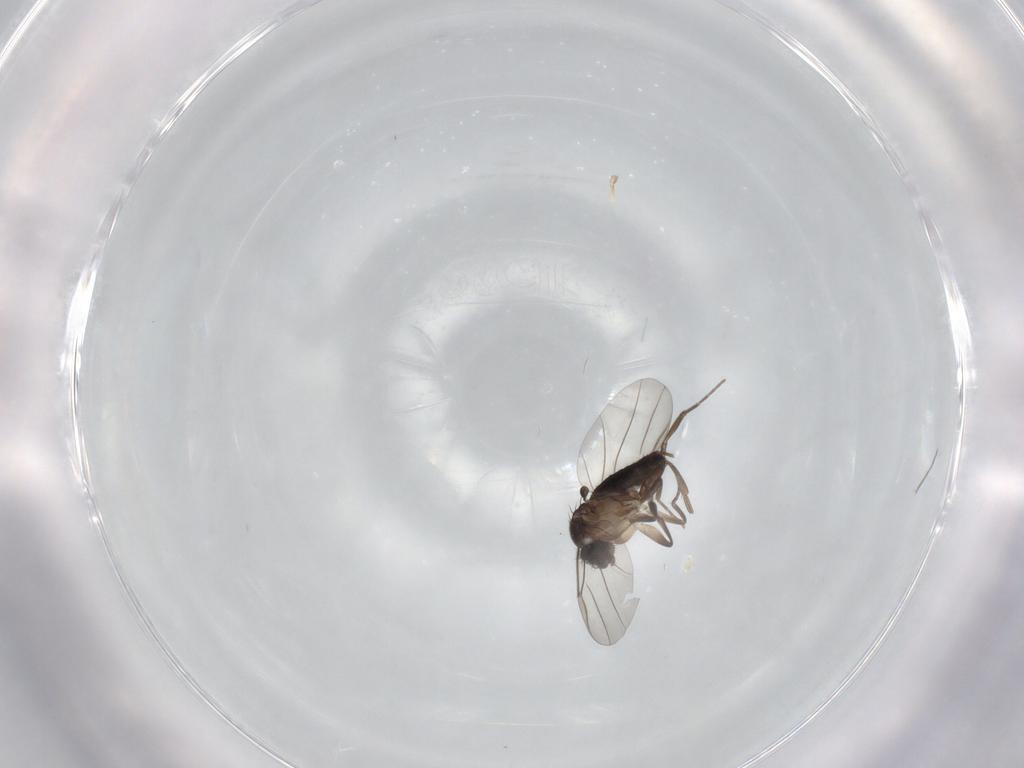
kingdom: Animalia
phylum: Arthropoda
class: Insecta
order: Diptera
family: Phoridae
